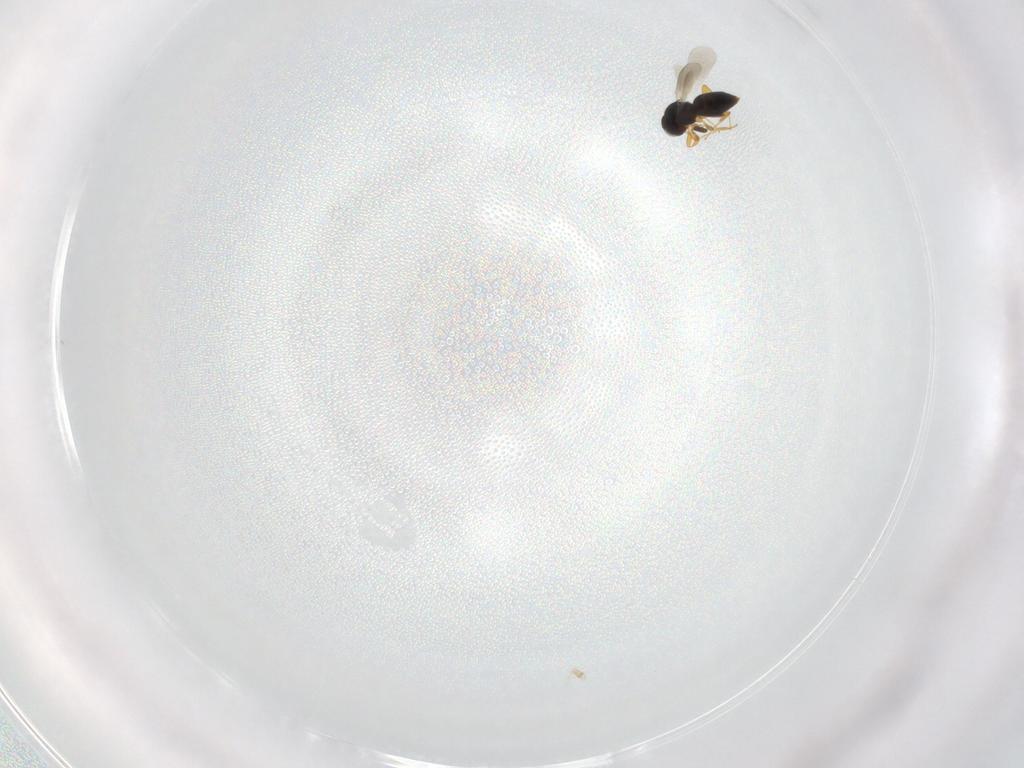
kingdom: Animalia
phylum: Arthropoda
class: Insecta
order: Hymenoptera
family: Platygastridae
